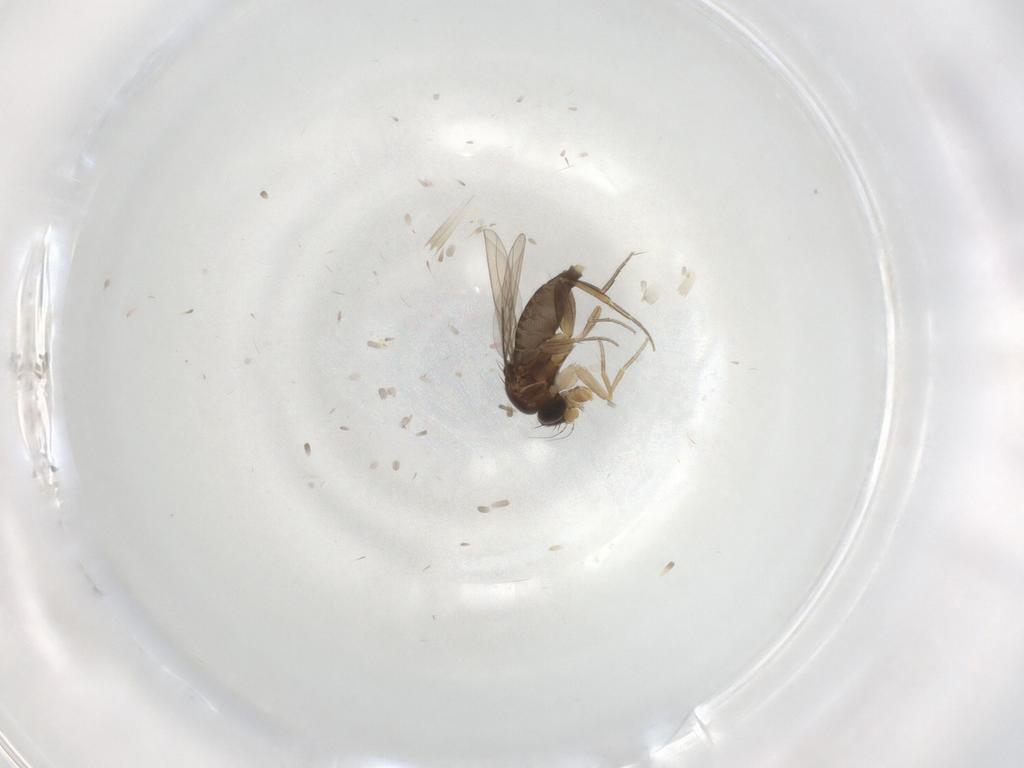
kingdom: Animalia
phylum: Arthropoda
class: Insecta
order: Diptera
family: Phoridae
